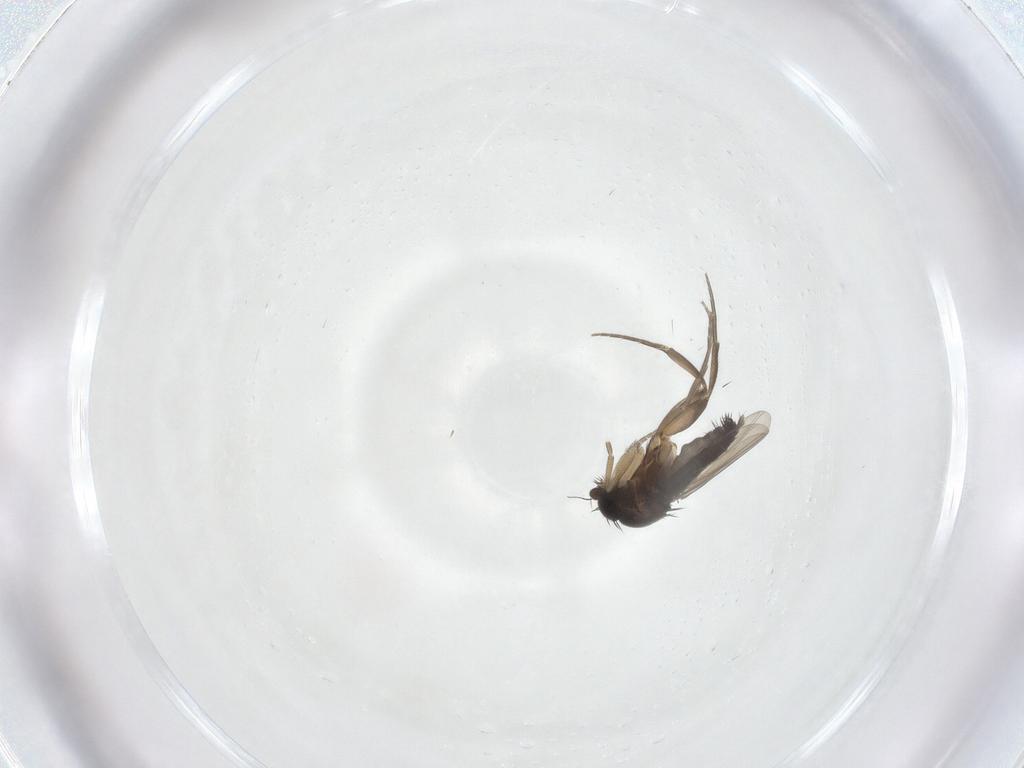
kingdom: Animalia
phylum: Arthropoda
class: Insecta
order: Diptera
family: Phoridae
